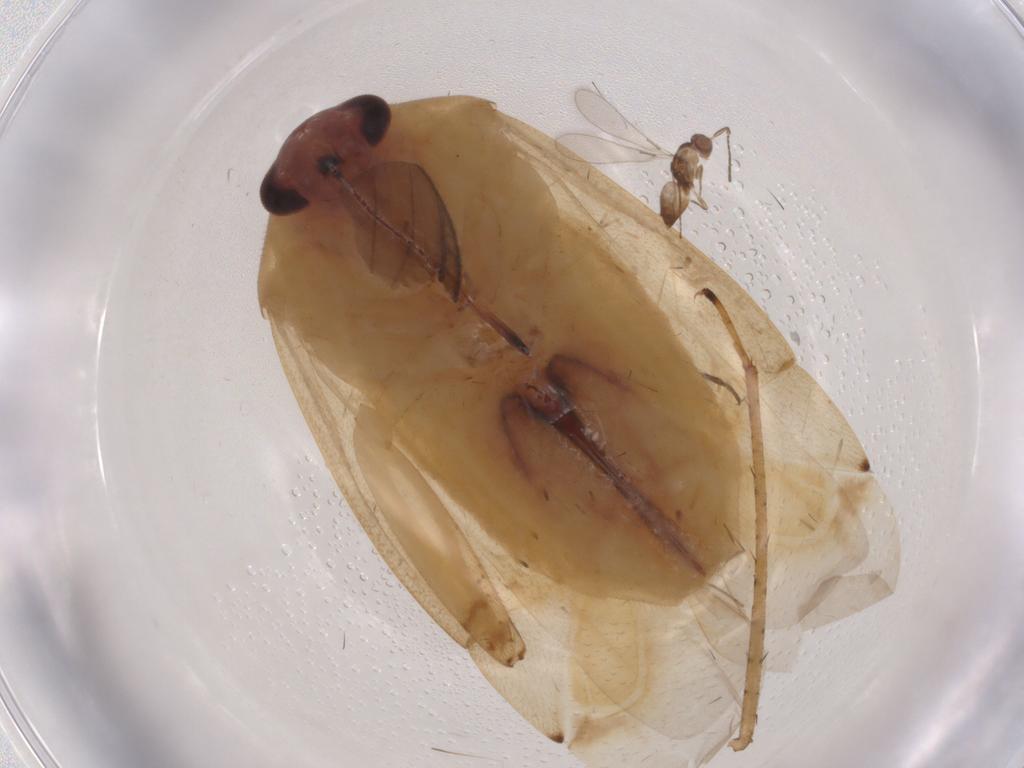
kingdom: Animalia
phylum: Arthropoda
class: Insecta
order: Hemiptera
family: Miridae
